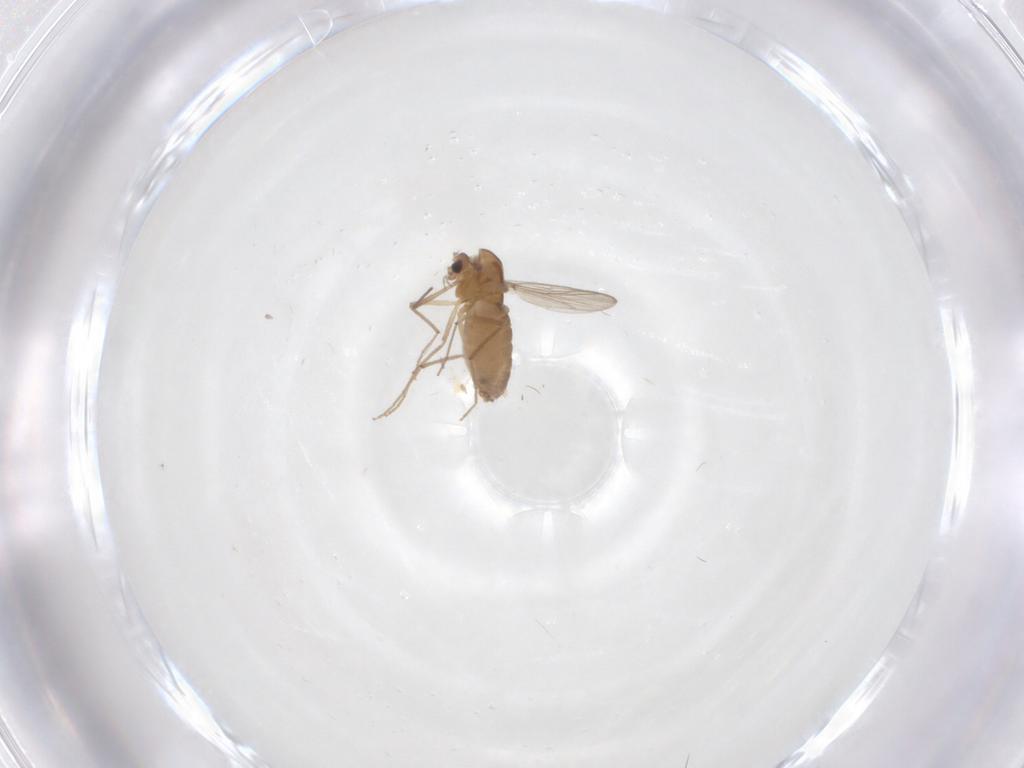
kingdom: Animalia
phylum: Arthropoda
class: Insecta
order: Diptera
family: Chironomidae
